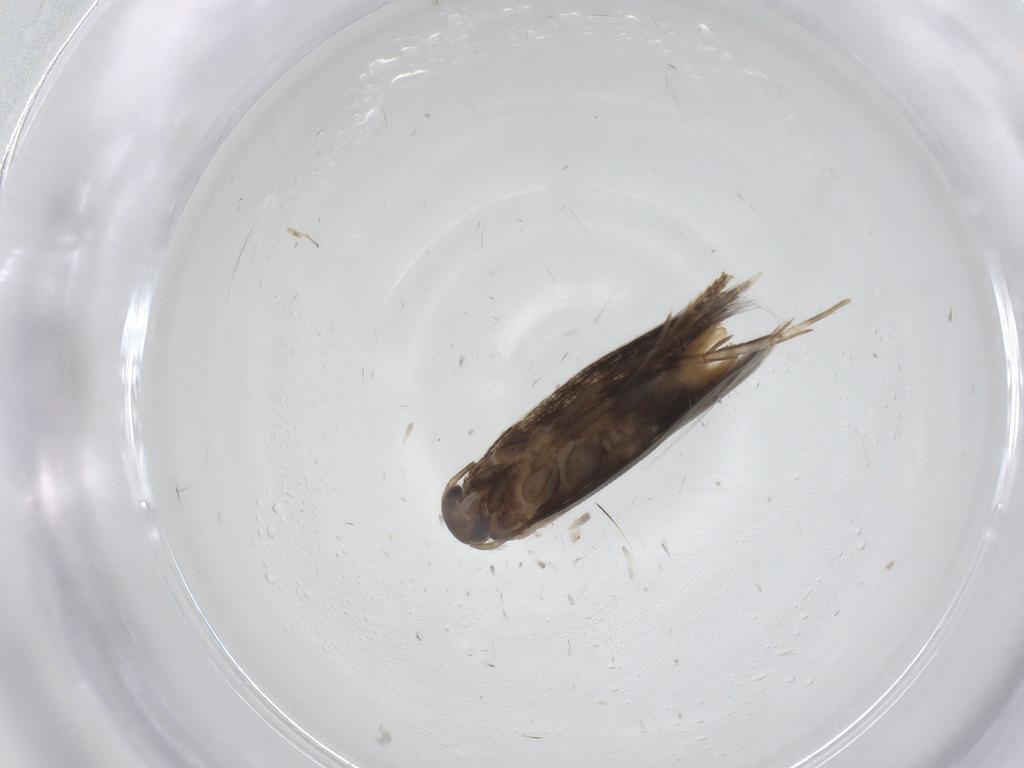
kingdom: Animalia
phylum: Arthropoda
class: Insecta
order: Lepidoptera
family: Elachistidae
